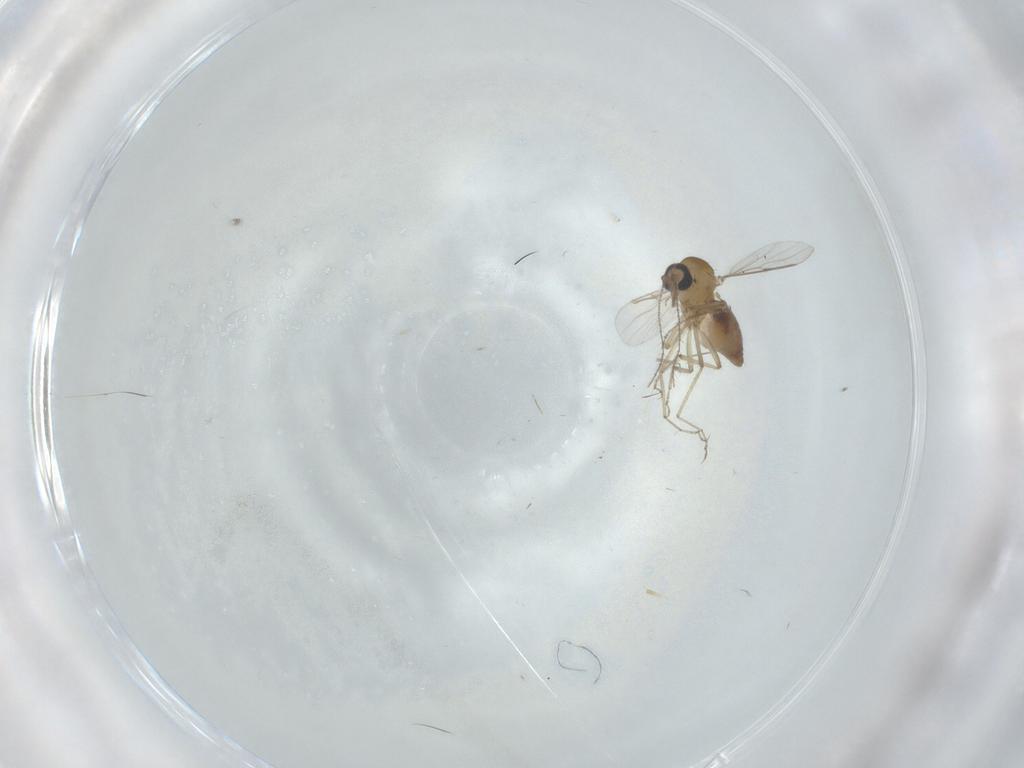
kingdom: Animalia
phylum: Arthropoda
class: Insecta
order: Diptera
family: Ceratopogonidae
